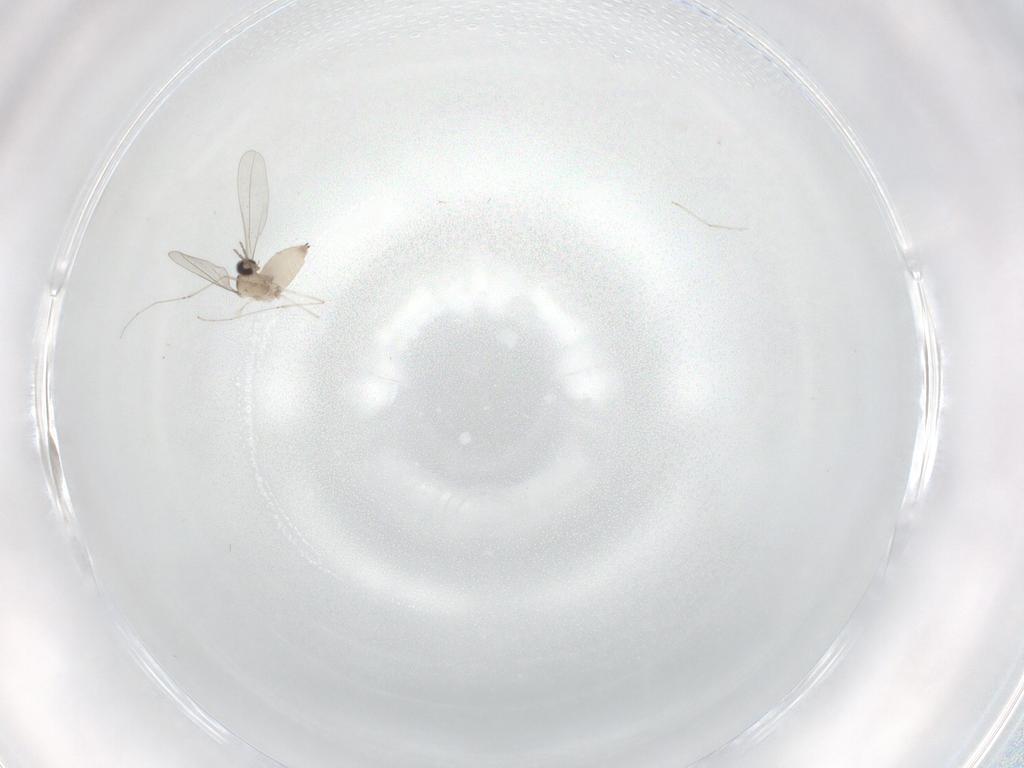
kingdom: Animalia
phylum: Arthropoda
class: Insecta
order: Diptera
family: Cecidomyiidae
